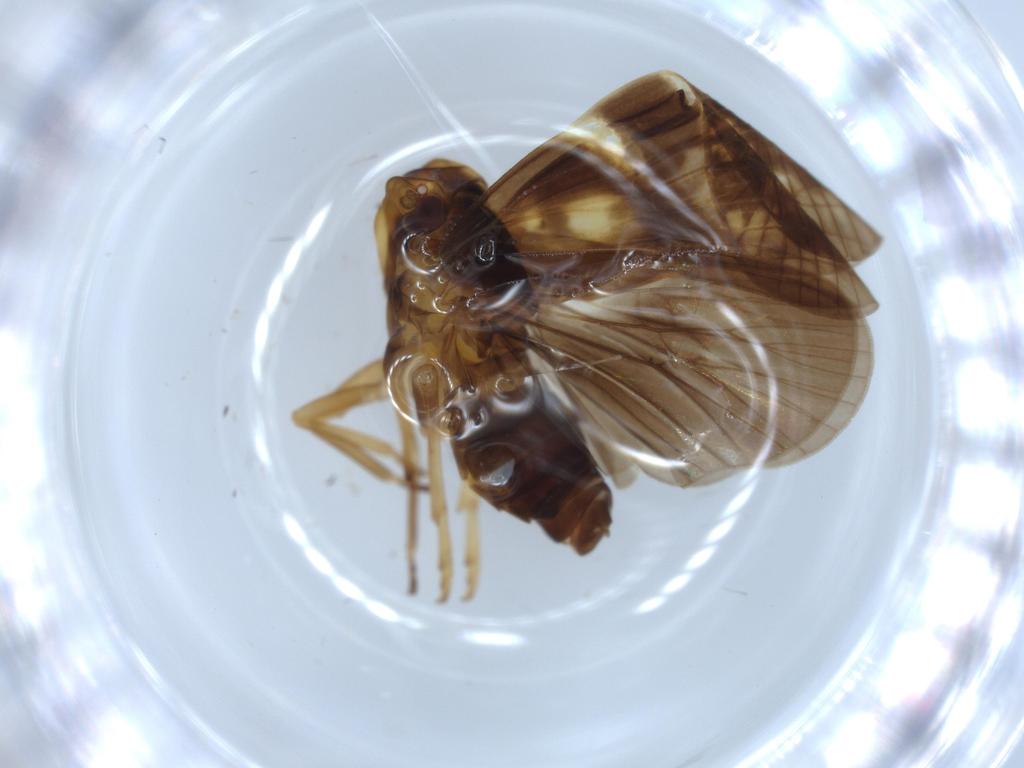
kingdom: Animalia
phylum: Arthropoda
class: Insecta
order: Hemiptera
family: Cixiidae
